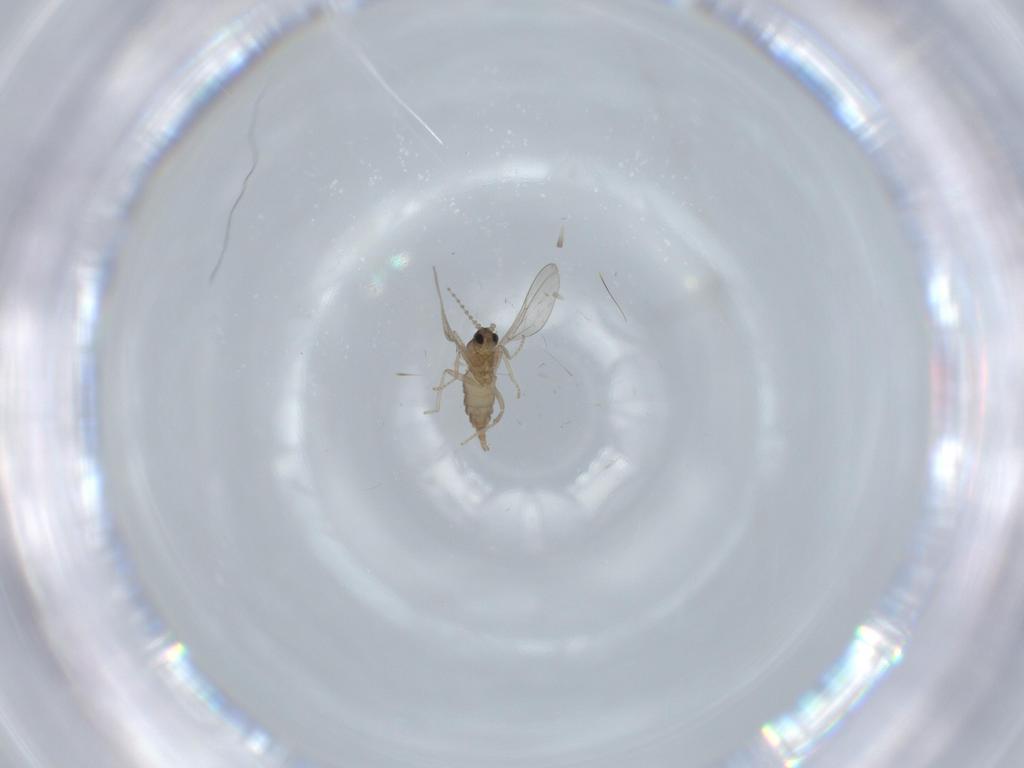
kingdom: Animalia
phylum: Arthropoda
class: Insecta
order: Diptera
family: Cecidomyiidae
